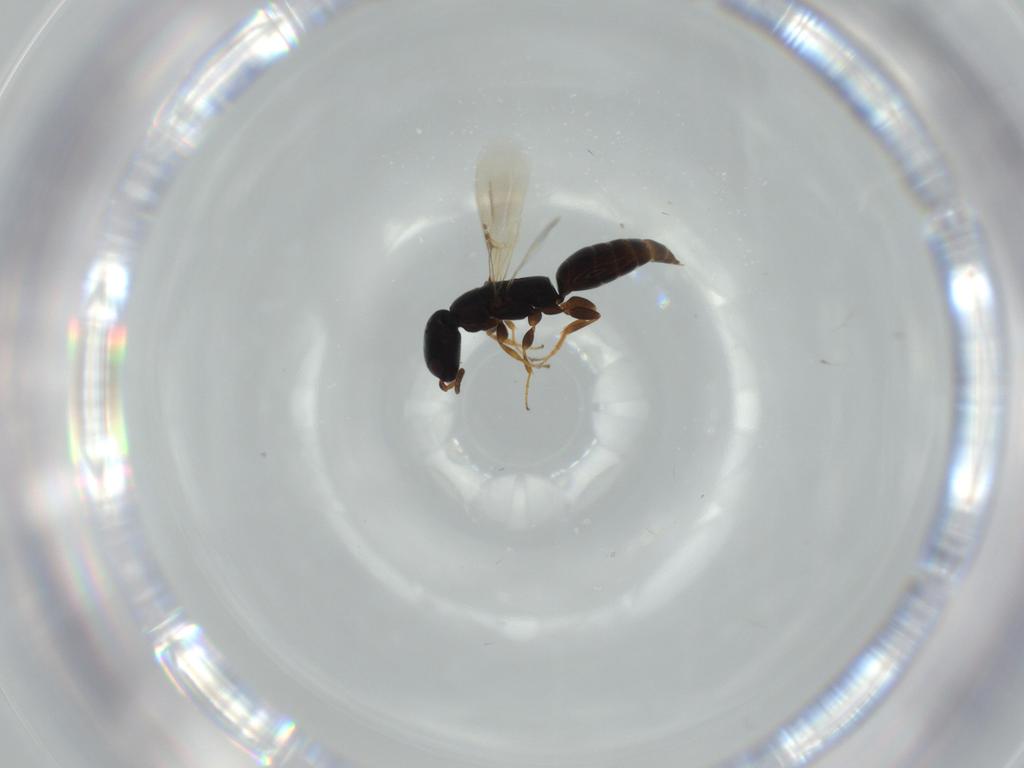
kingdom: Animalia
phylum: Arthropoda
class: Insecta
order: Hymenoptera
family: Bethylidae
